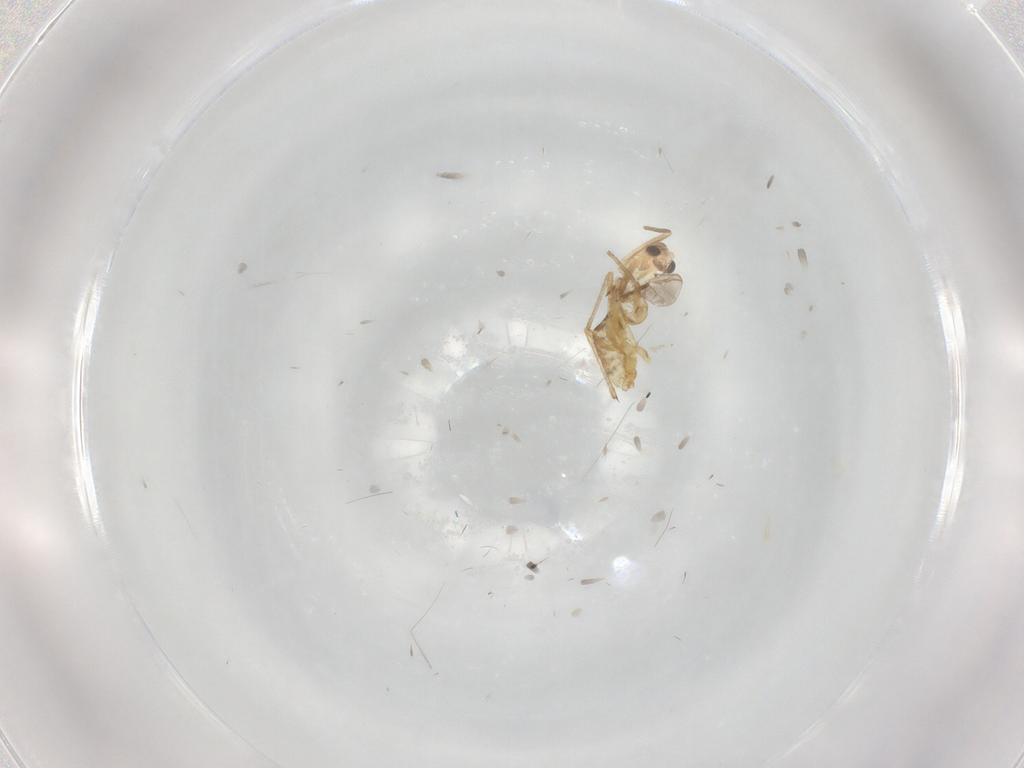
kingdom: Animalia
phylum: Arthropoda
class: Insecta
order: Diptera
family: Chironomidae
